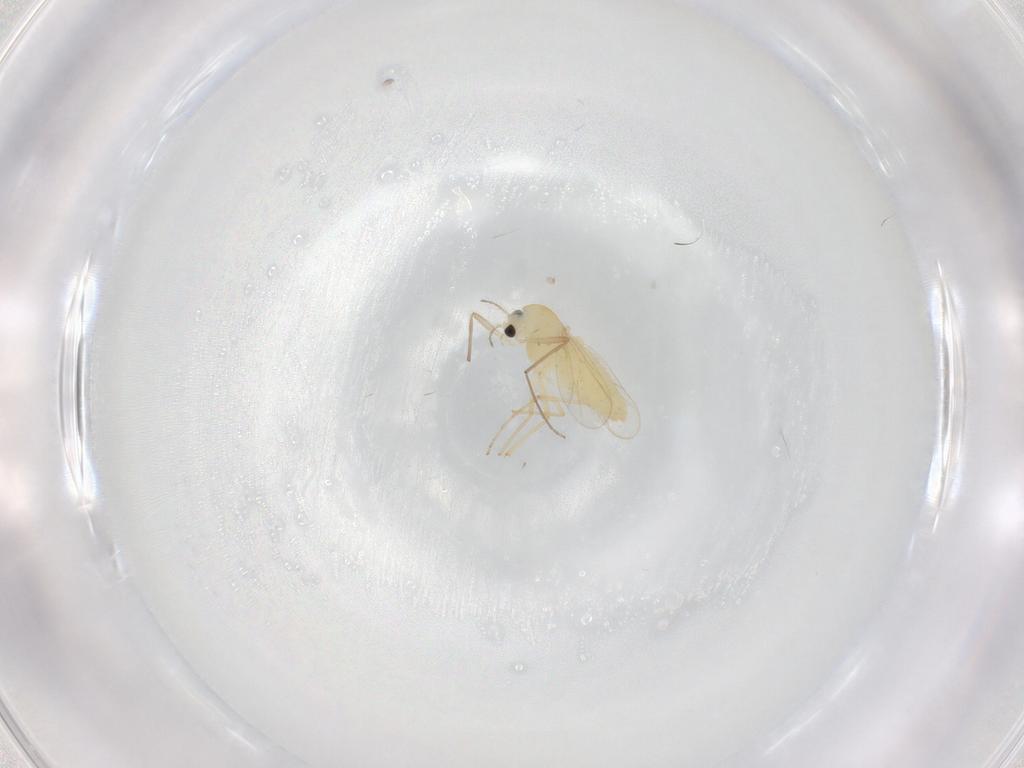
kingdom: Animalia
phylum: Arthropoda
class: Insecta
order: Diptera
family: Chironomidae
